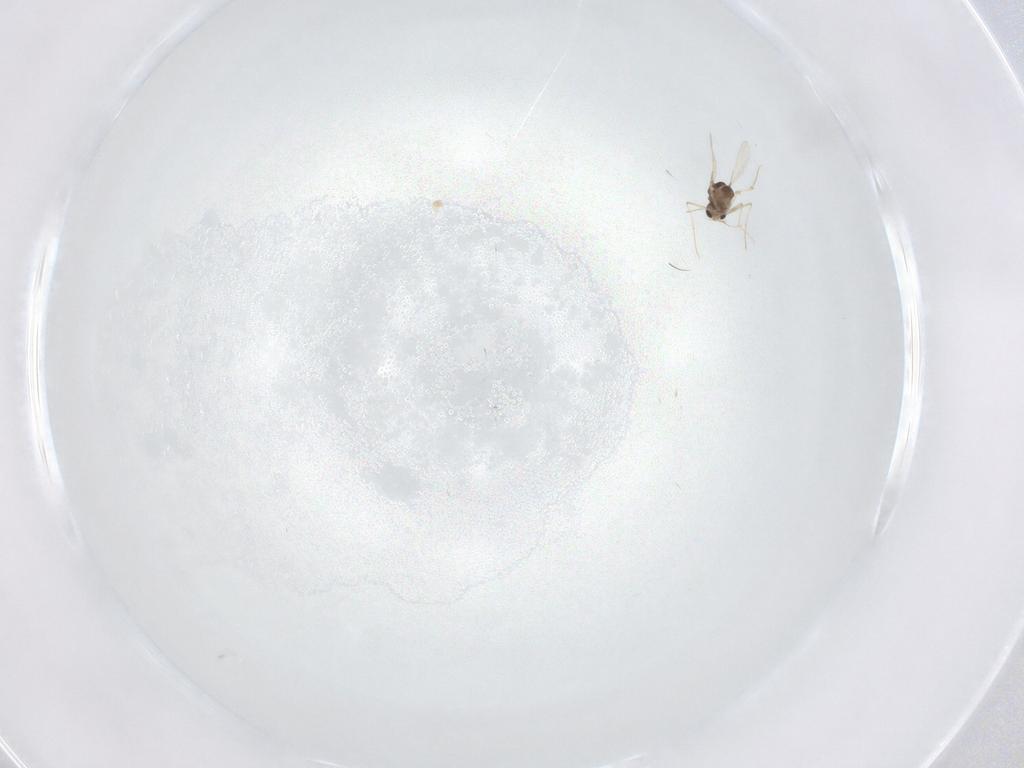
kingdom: Animalia
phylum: Arthropoda
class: Insecta
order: Diptera
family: Chironomidae
